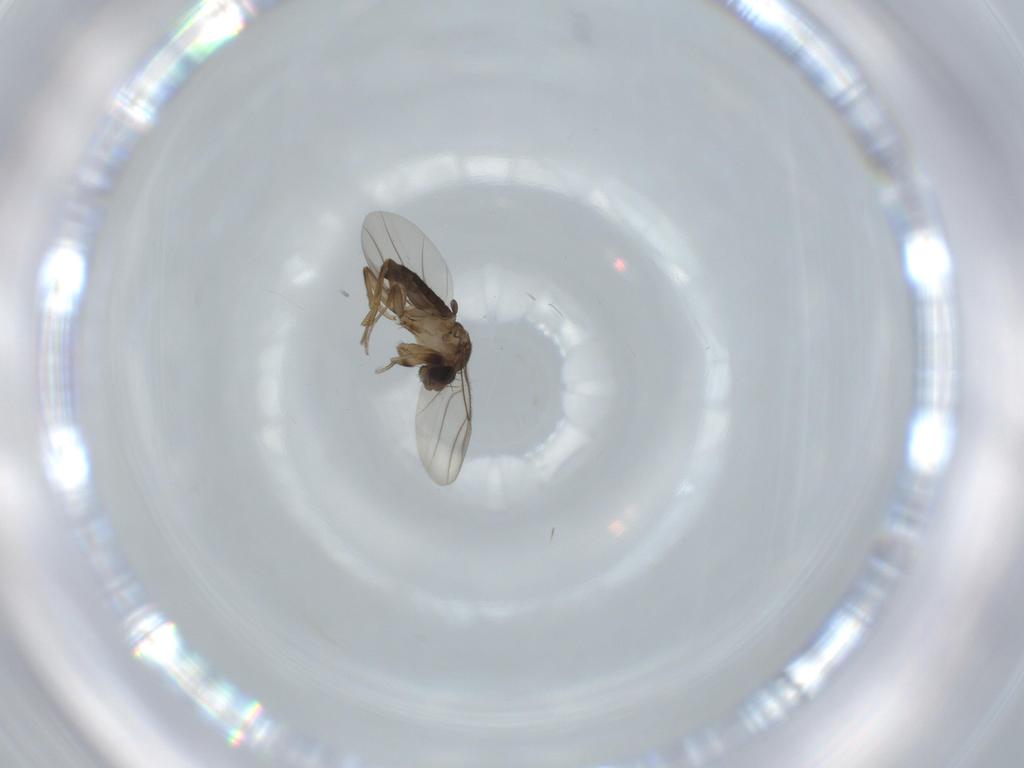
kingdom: Animalia
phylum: Arthropoda
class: Insecta
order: Diptera
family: Phoridae
